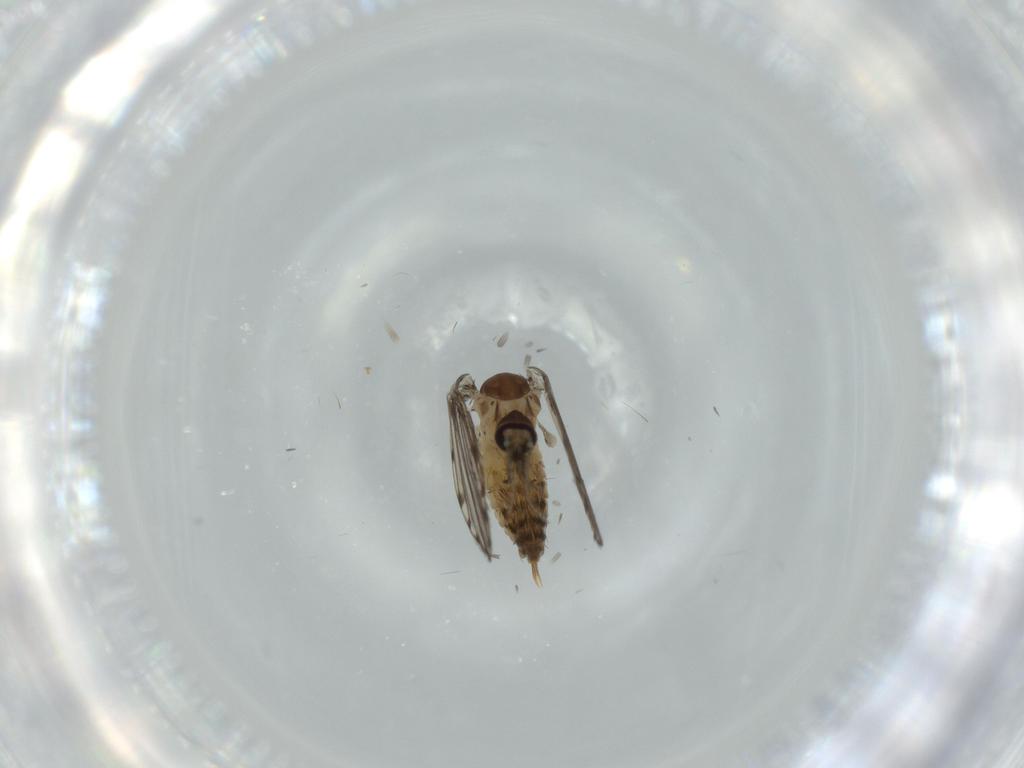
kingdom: Animalia
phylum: Arthropoda
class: Insecta
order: Diptera
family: Psychodidae
